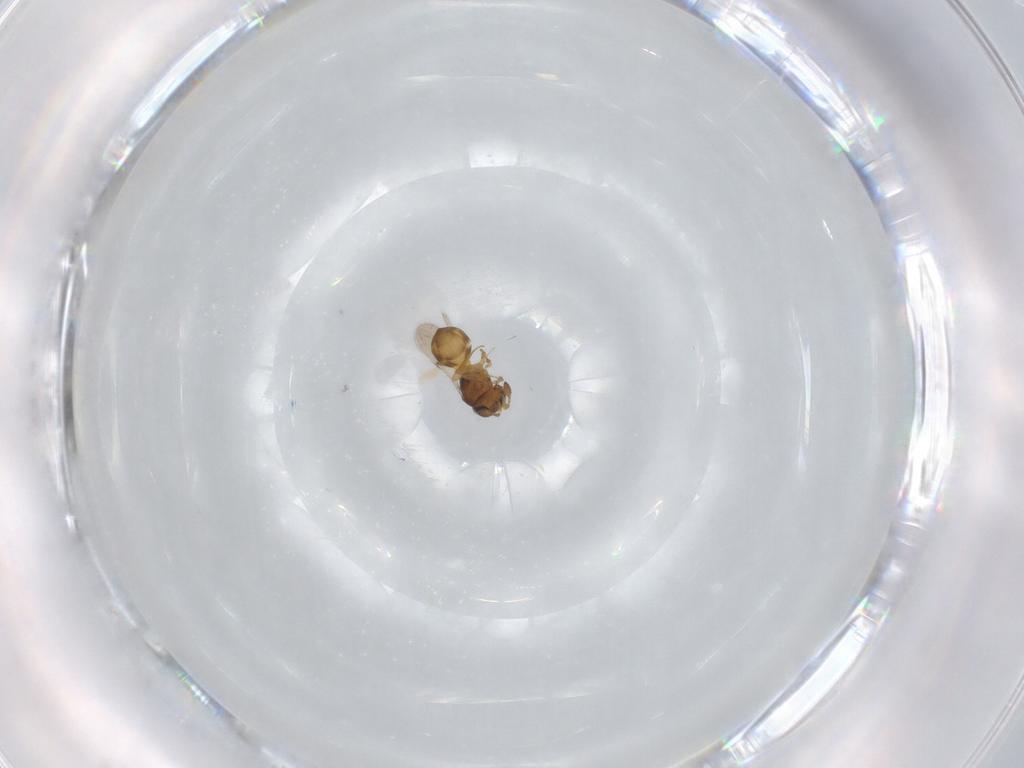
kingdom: Animalia
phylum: Arthropoda
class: Insecta
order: Hymenoptera
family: Scelionidae
